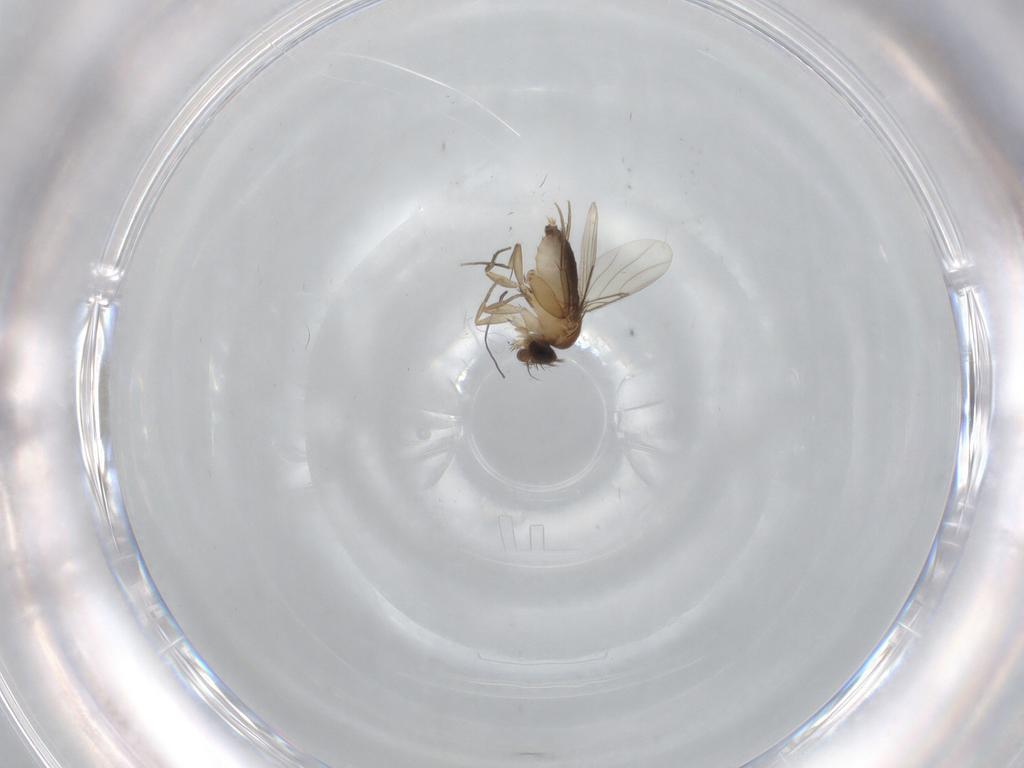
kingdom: Animalia
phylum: Arthropoda
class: Insecta
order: Diptera
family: Phoridae
